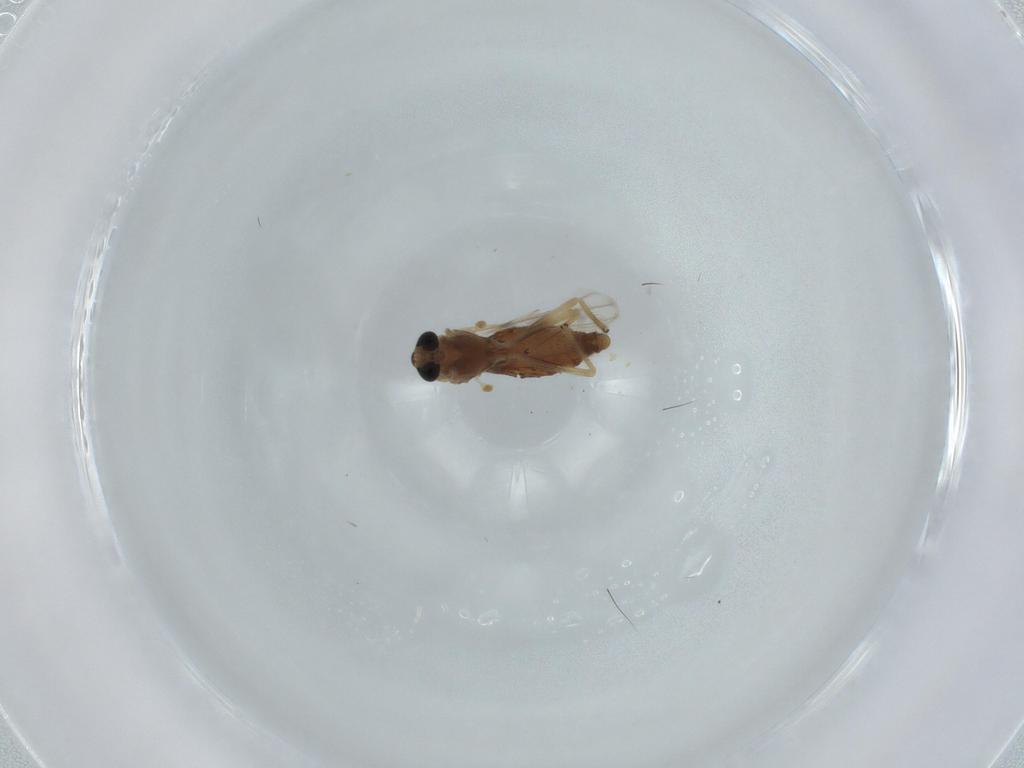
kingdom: Animalia
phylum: Arthropoda
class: Insecta
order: Diptera
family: Chironomidae
